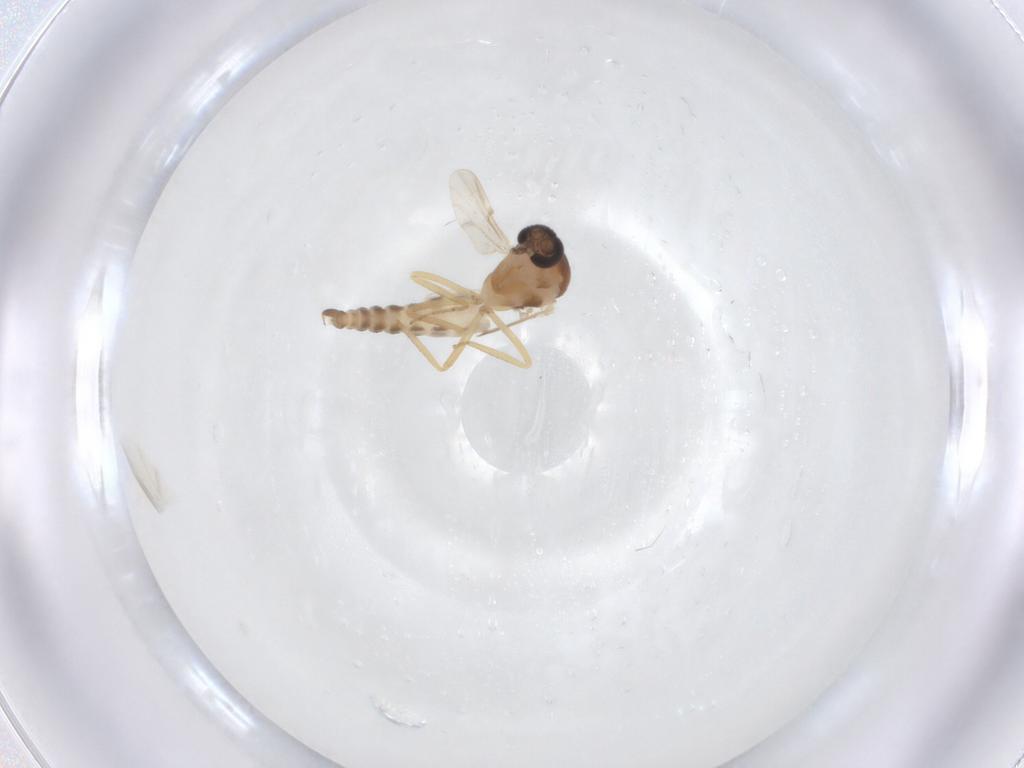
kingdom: Animalia
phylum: Arthropoda
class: Insecta
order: Diptera
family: Ceratopogonidae
